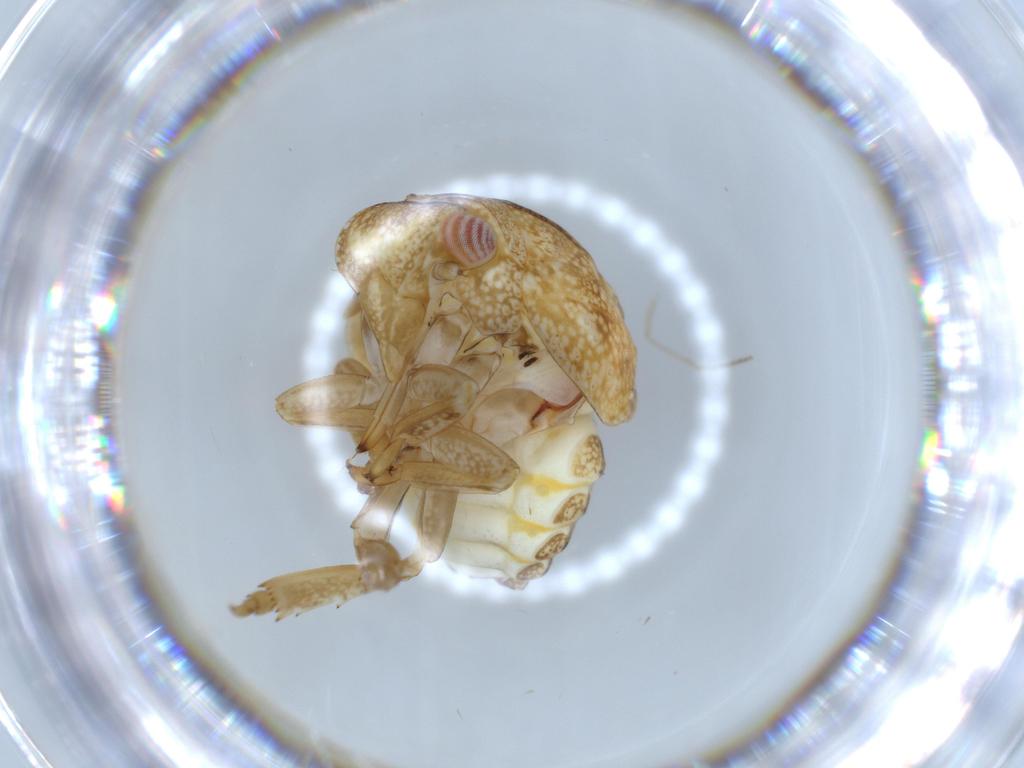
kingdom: Animalia
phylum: Arthropoda
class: Insecta
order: Hemiptera
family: Acanaloniidae
